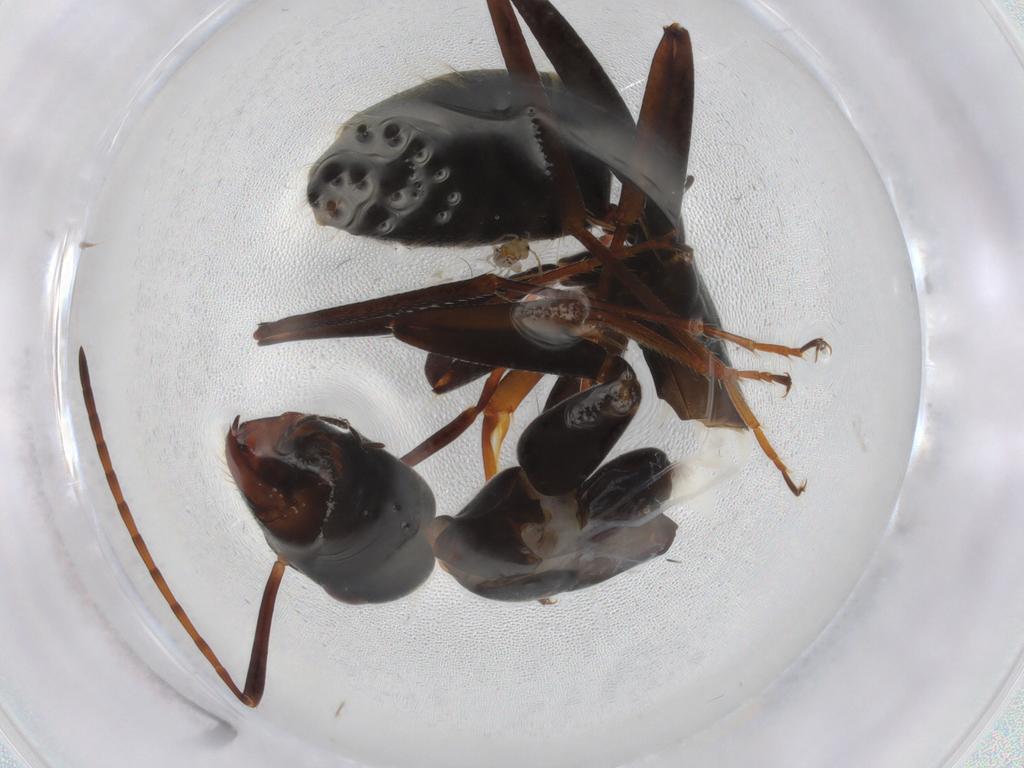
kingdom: Animalia
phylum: Arthropoda
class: Insecta
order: Hymenoptera
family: Formicidae
